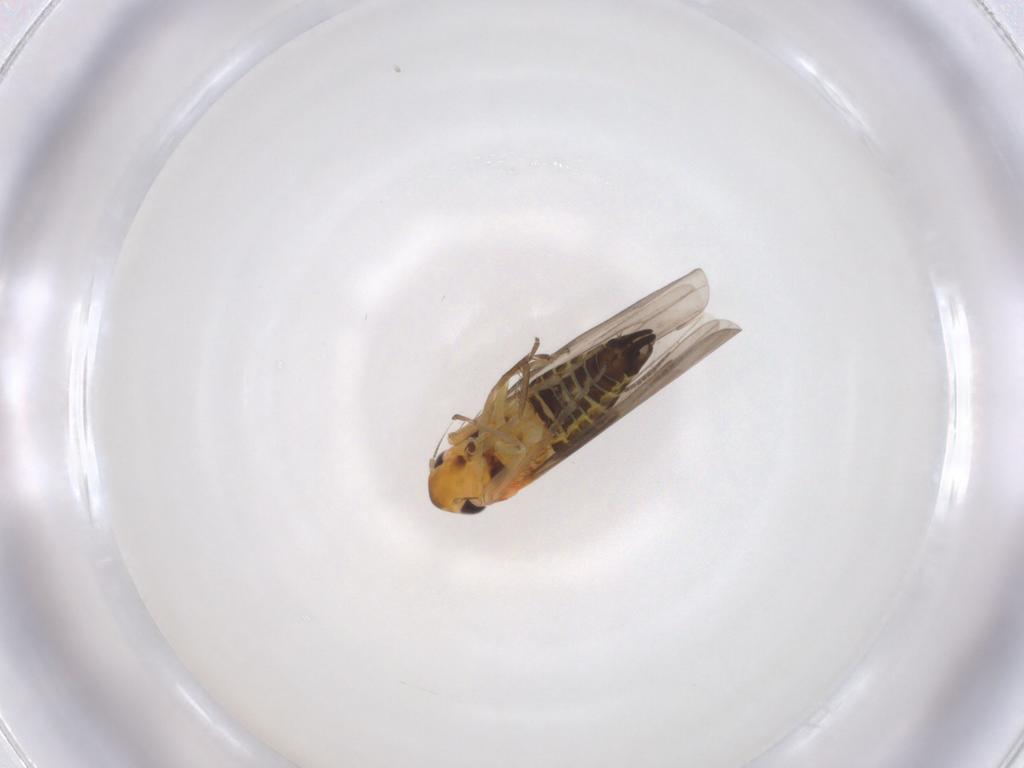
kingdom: Animalia
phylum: Arthropoda
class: Insecta
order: Hemiptera
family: Cicadellidae
